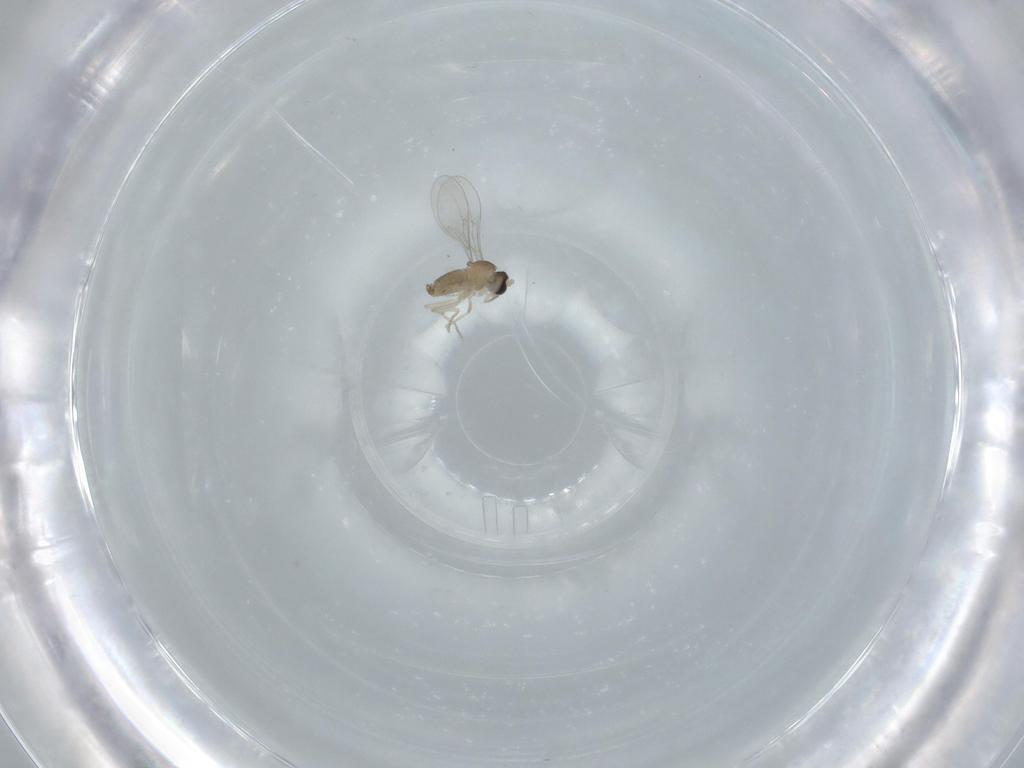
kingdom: Animalia
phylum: Arthropoda
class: Insecta
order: Diptera
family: Cecidomyiidae
